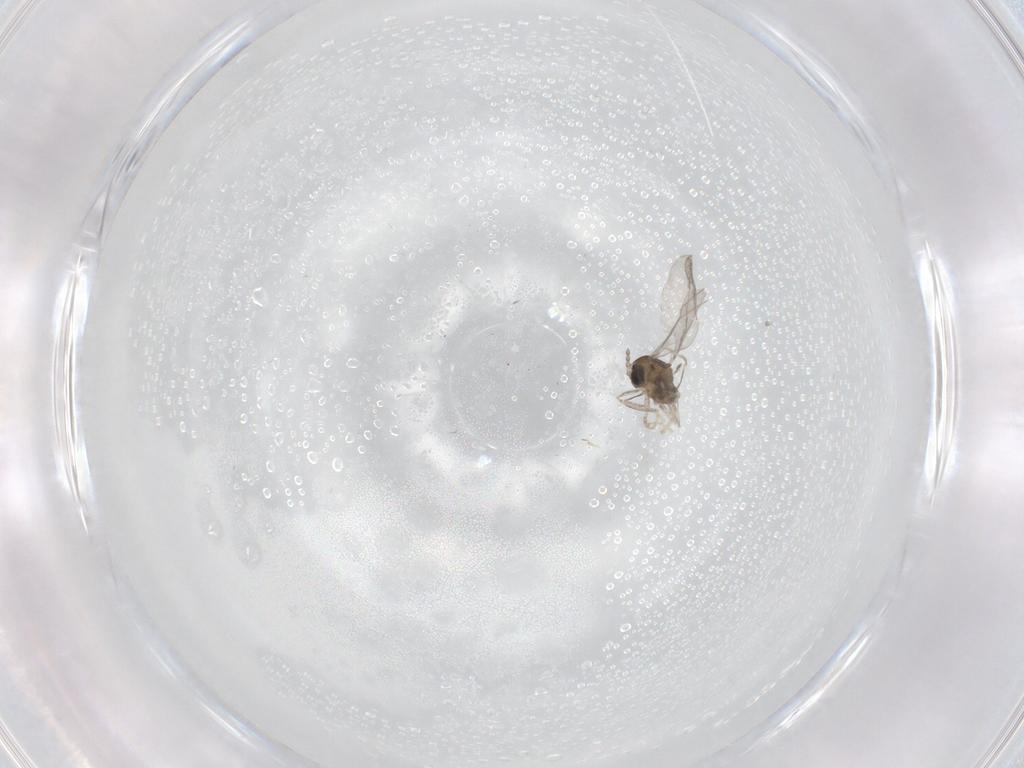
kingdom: Animalia
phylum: Arthropoda
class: Insecta
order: Diptera
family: Cecidomyiidae
